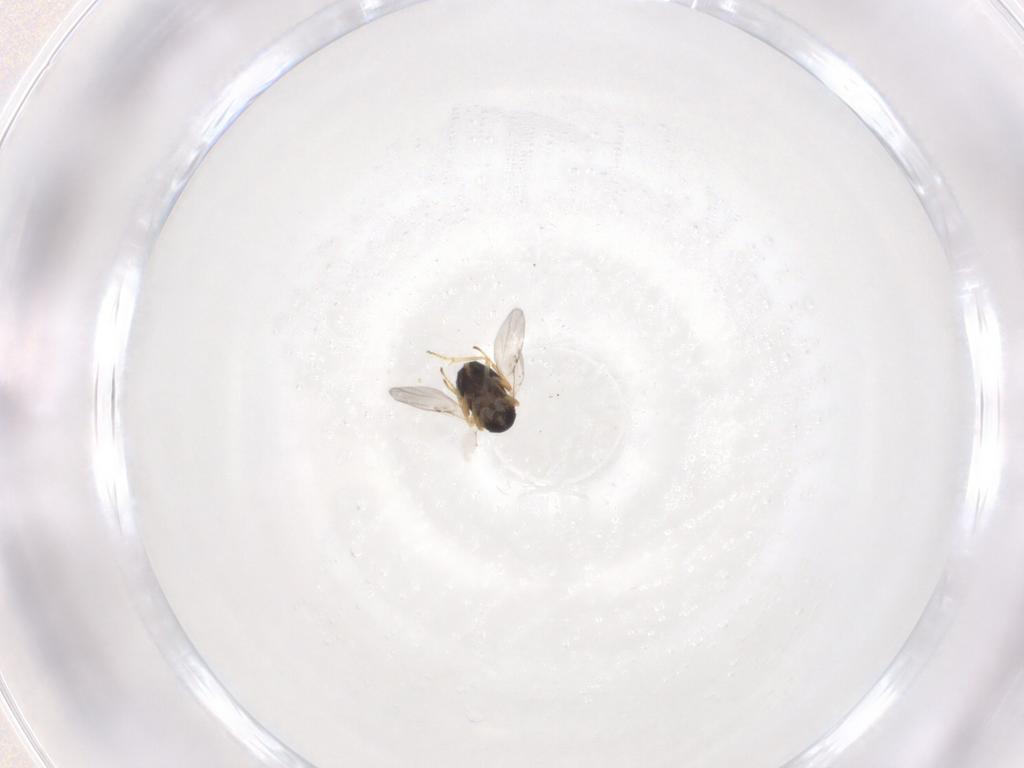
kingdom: Animalia
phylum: Arthropoda
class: Insecta
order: Hymenoptera
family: Encyrtidae
